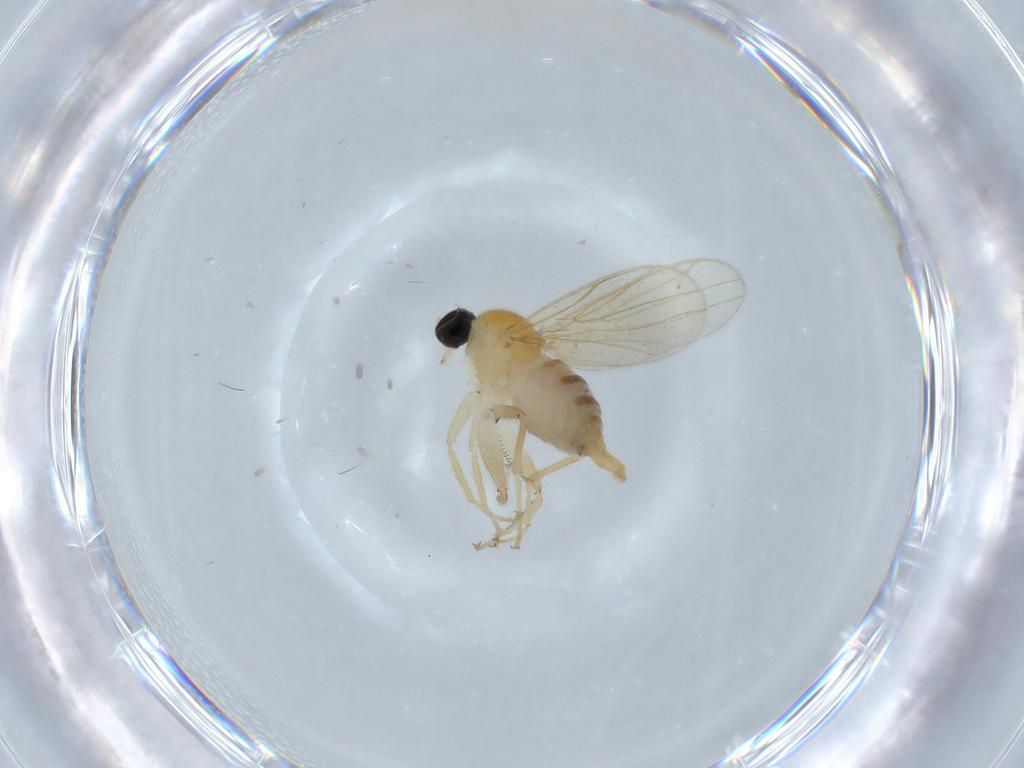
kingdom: Animalia
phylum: Arthropoda
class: Insecta
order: Diptera
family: Hybotidae
